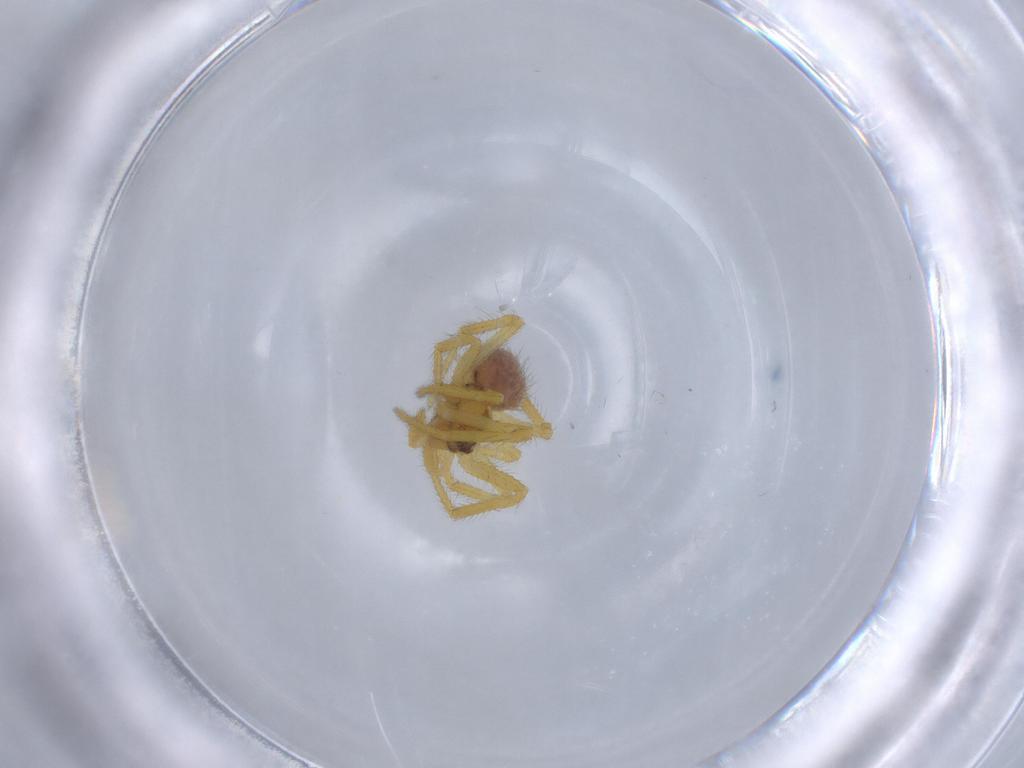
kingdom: Animalia
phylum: Arthropoda
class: Arachnida
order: Araneae
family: Theridiidae
